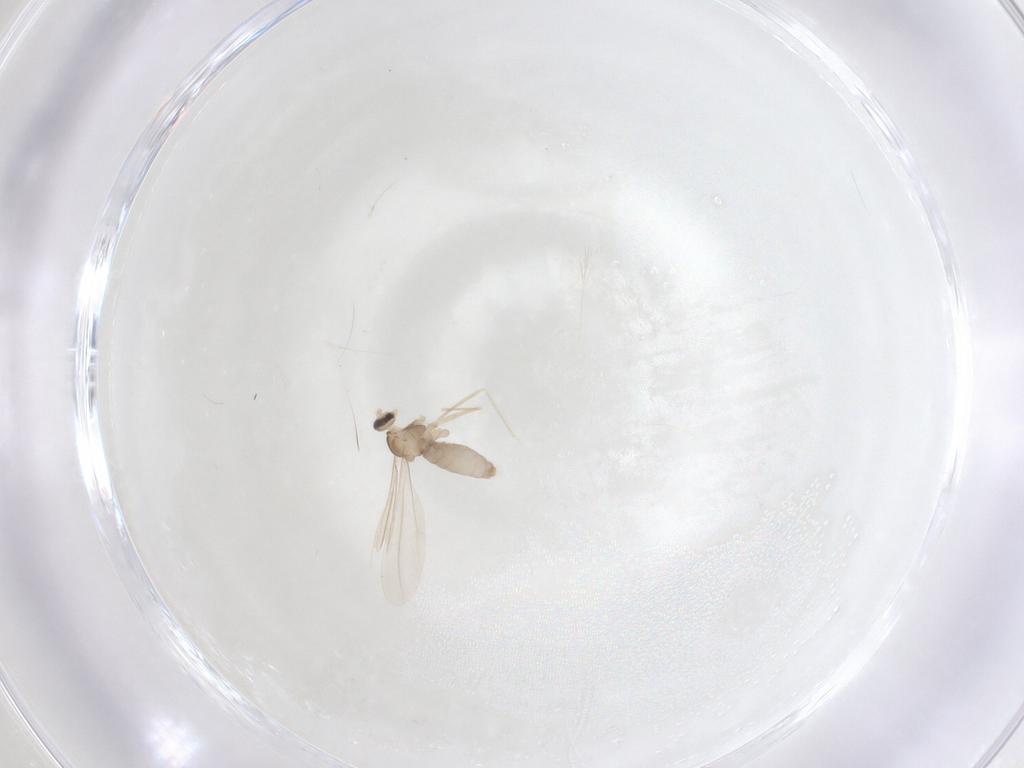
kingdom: Animalia
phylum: Arthropoda
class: Insecta
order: Diptera
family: Cecidomyiidae
